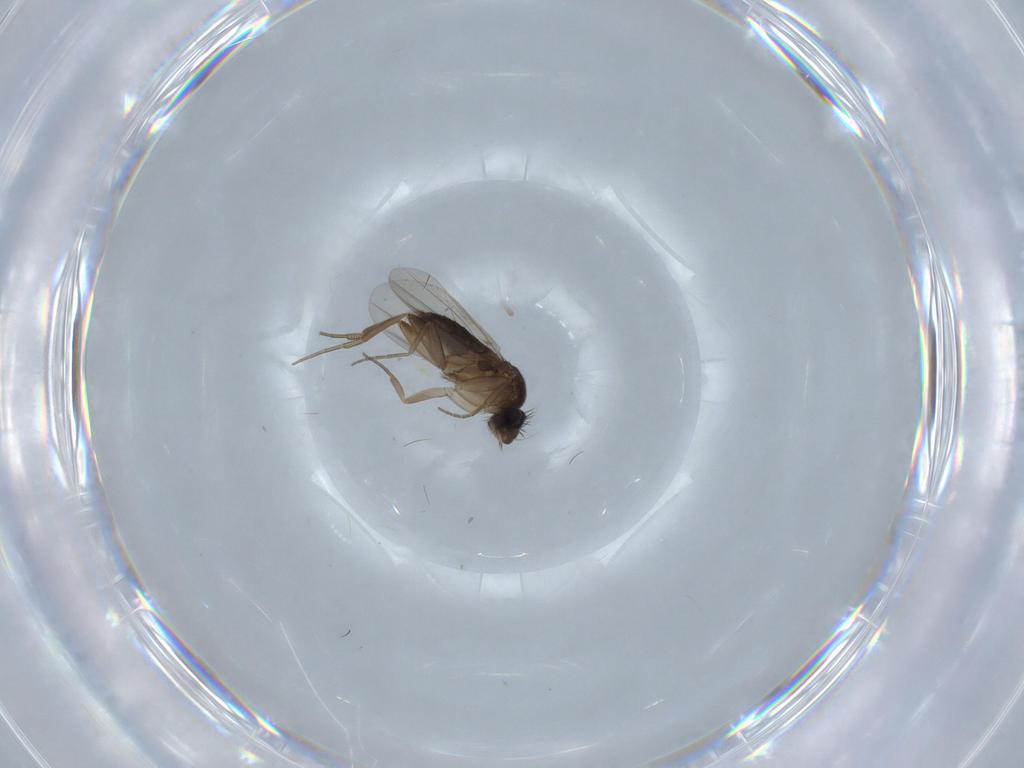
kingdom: Animalia
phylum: Arthropoda
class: Insecta
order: Diptera
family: Phoridae
